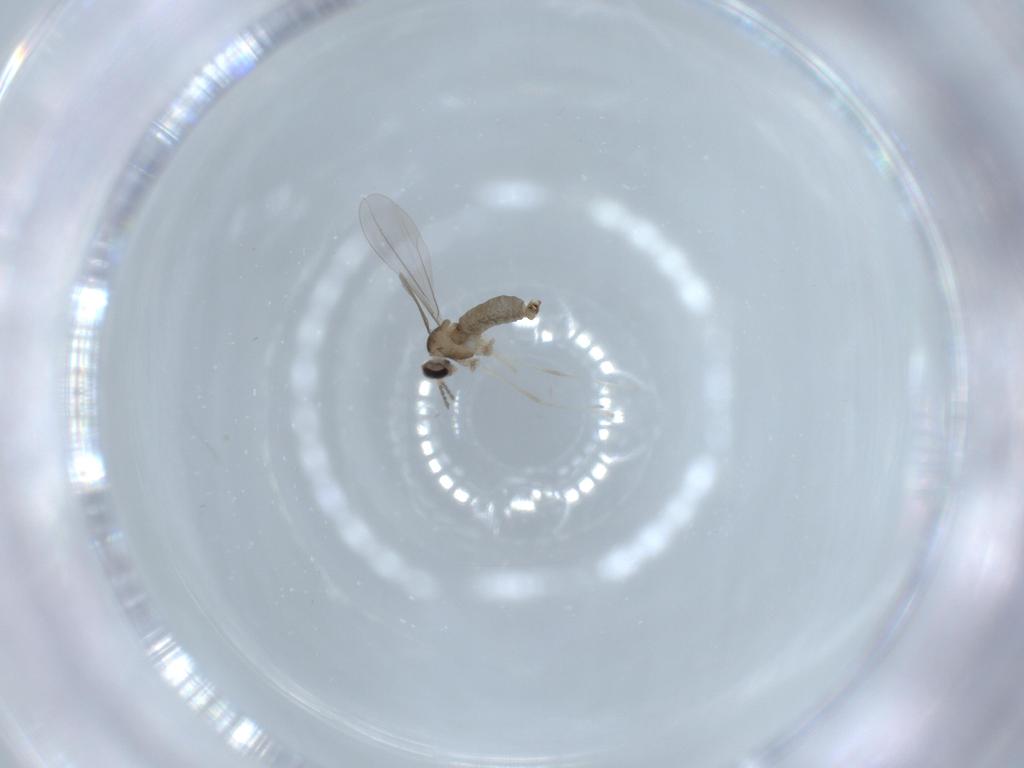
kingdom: Animalia
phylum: Arthropoda
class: Insecta
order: Diptera
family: Cecidomyiidae
